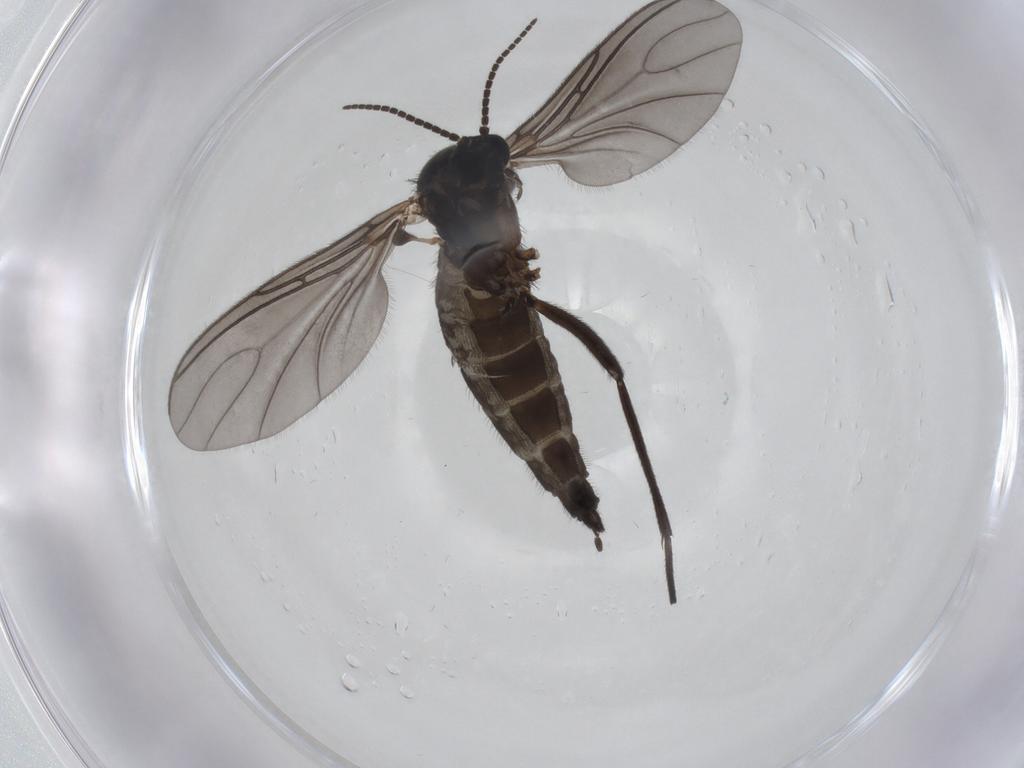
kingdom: Animalia
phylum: Arthropoda
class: Insecta
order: Diptera
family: Sciaridae
